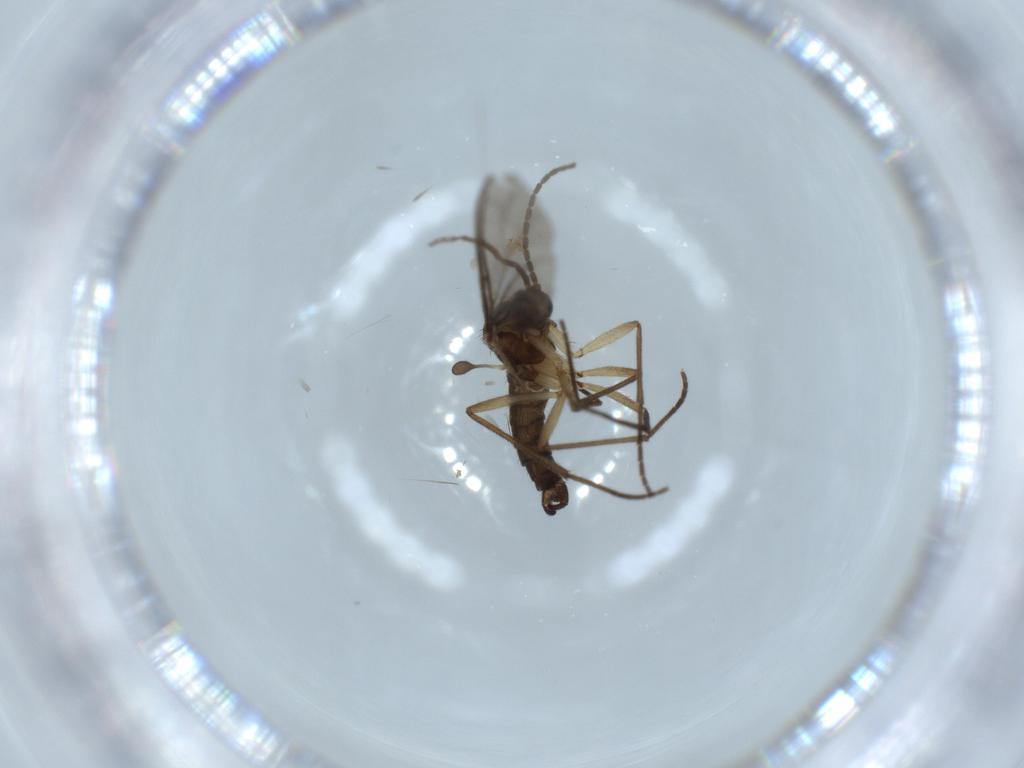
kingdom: Animalia
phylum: Arthropoda
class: Insecta
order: Diptera
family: Sciaridae
